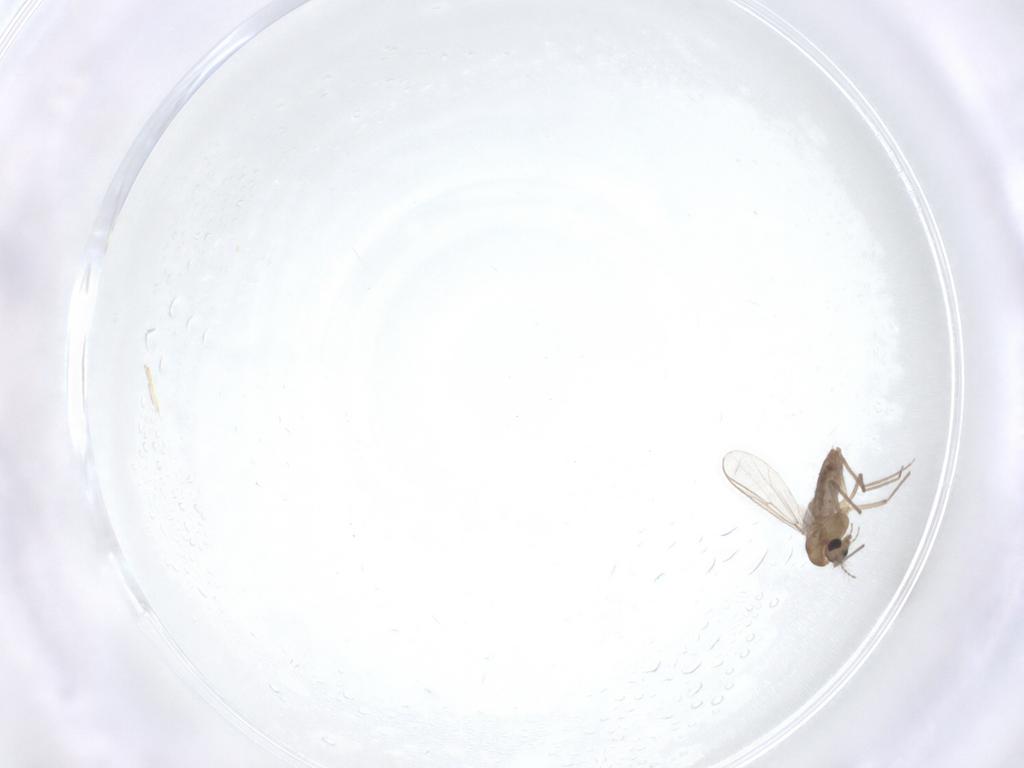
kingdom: Animalia
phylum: Arthropoda
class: Insecta
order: Diptera
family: Chironomidae
